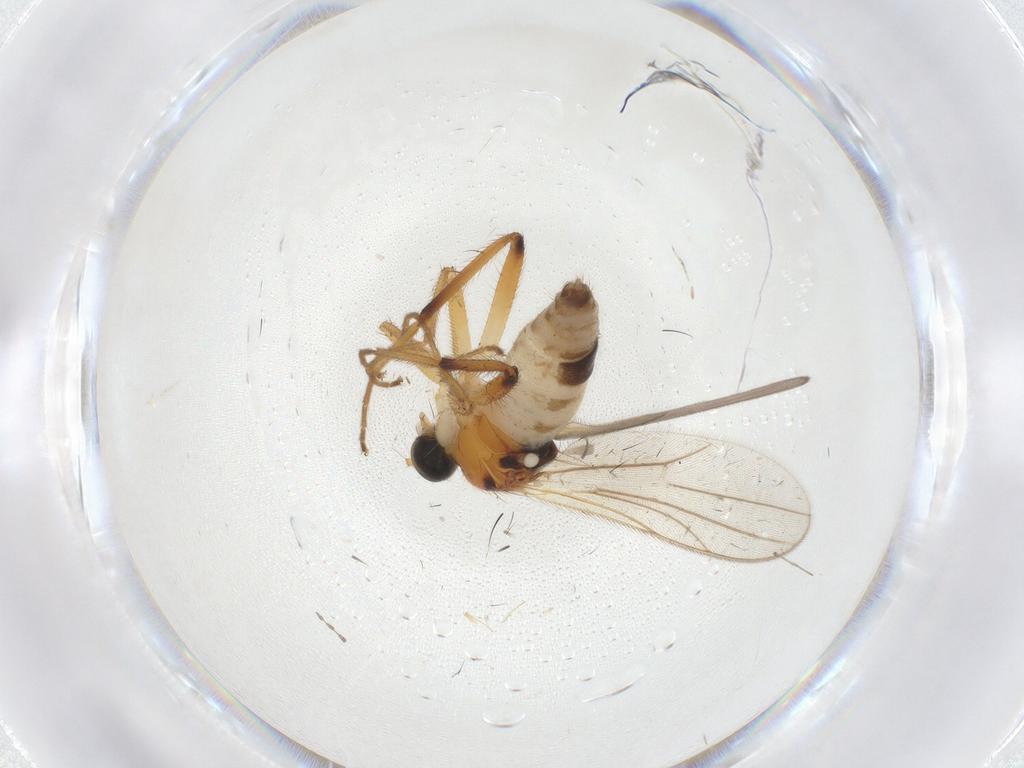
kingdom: Animalia
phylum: Arthropoda
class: Insecta
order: Diptera
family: Hybotidae
